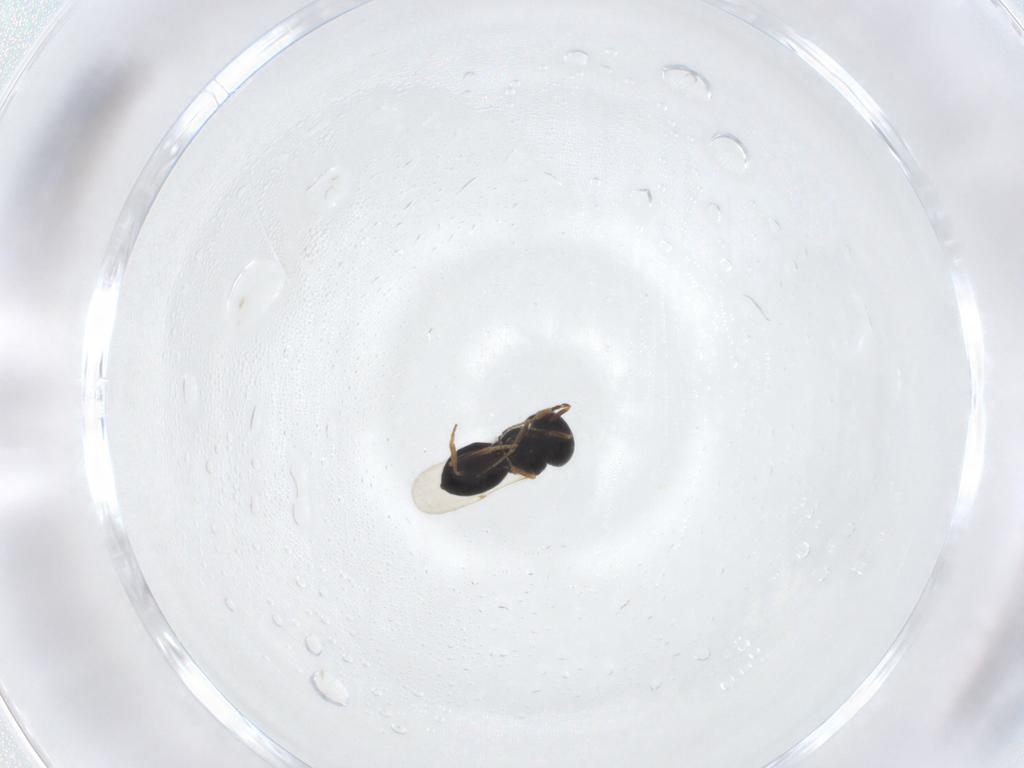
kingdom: Animalia
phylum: Arthropoda
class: Insecta
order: Hymenoptera
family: Scelionidae
